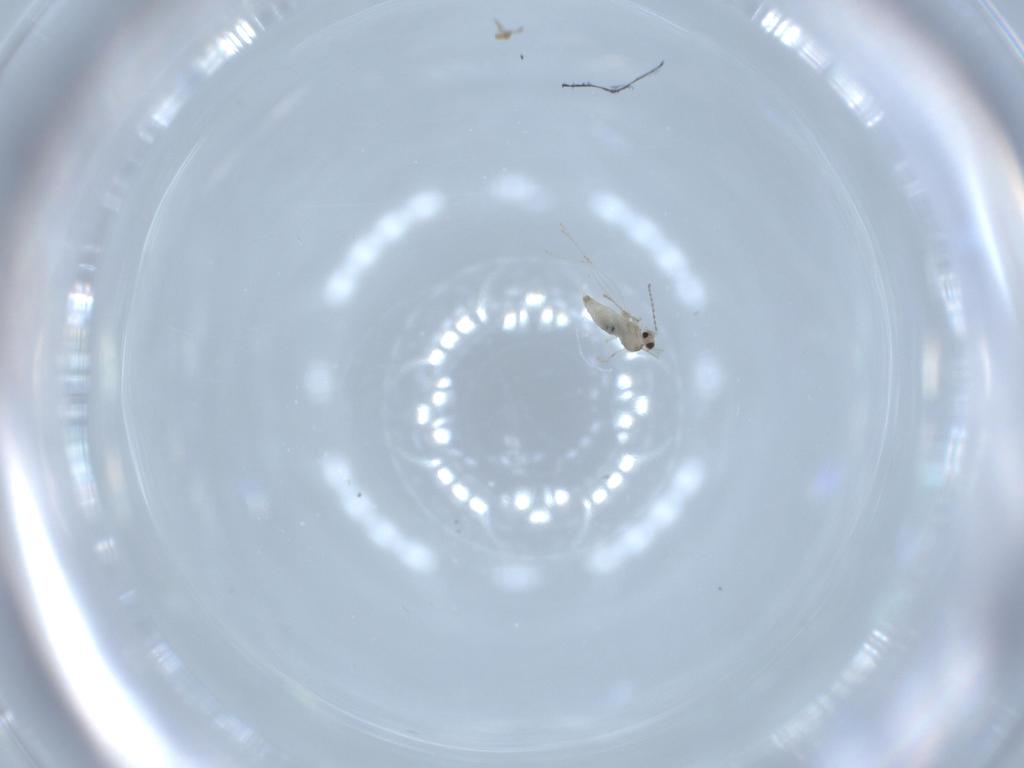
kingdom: Animalia
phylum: Arthropoda
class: Insecta
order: Diptera
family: Cecidomyiidae
